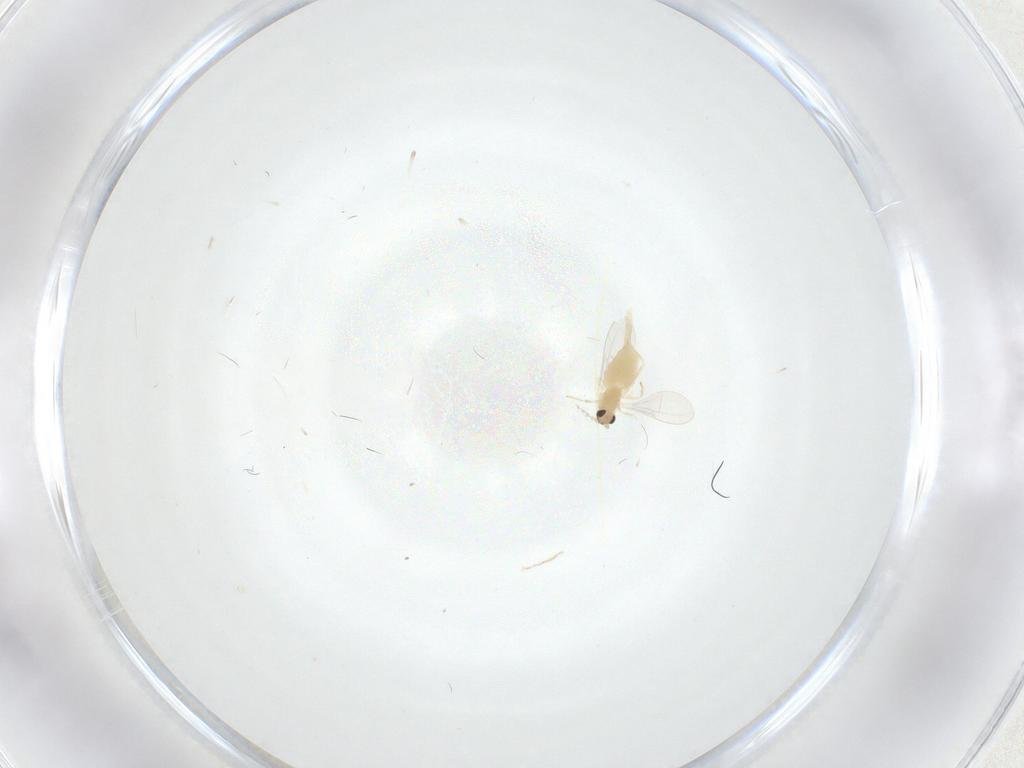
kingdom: Animalia
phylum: Arthropoda
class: Insecta
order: Diptera
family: Cecidomyiidae
